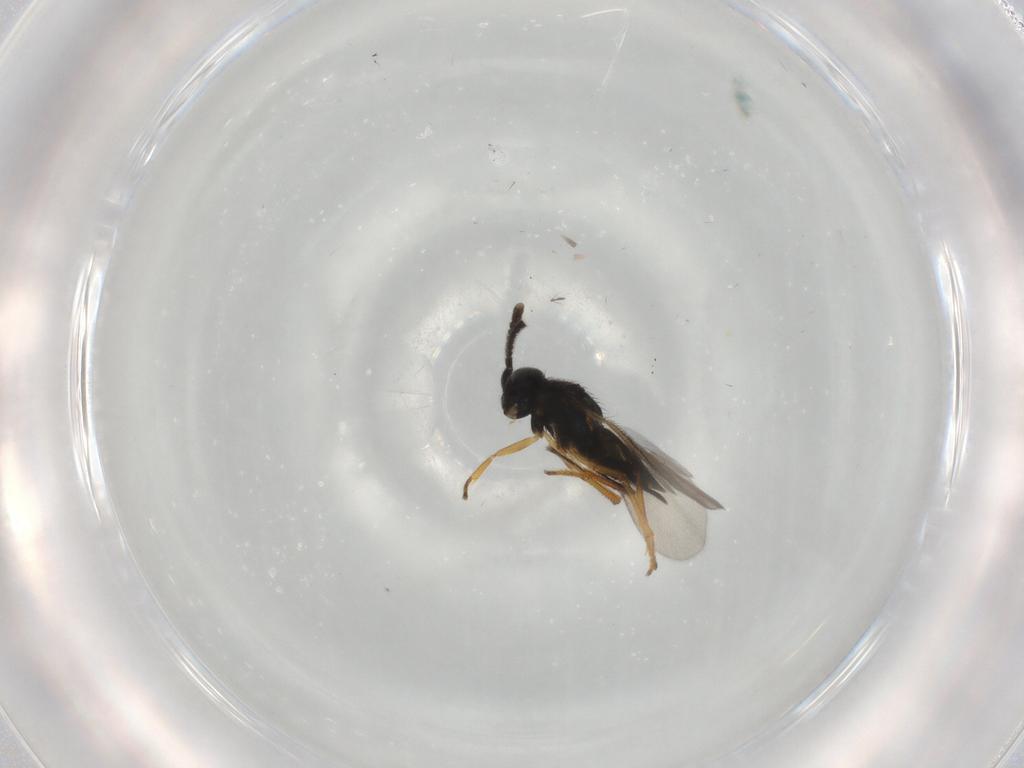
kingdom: Animalia
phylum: Arthropoda
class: Insecta
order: Hymenoptera
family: Encyrtidae
